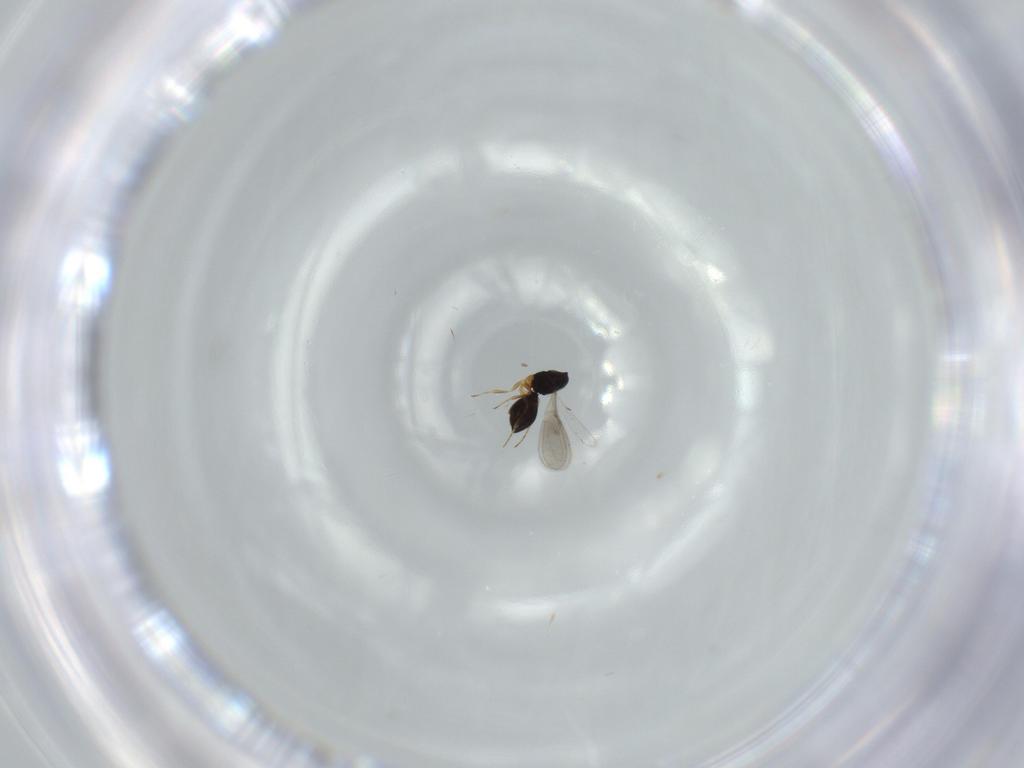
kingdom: Animalia
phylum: Arthropoda
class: Insecta
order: Hymenoptera
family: Scelionidae
